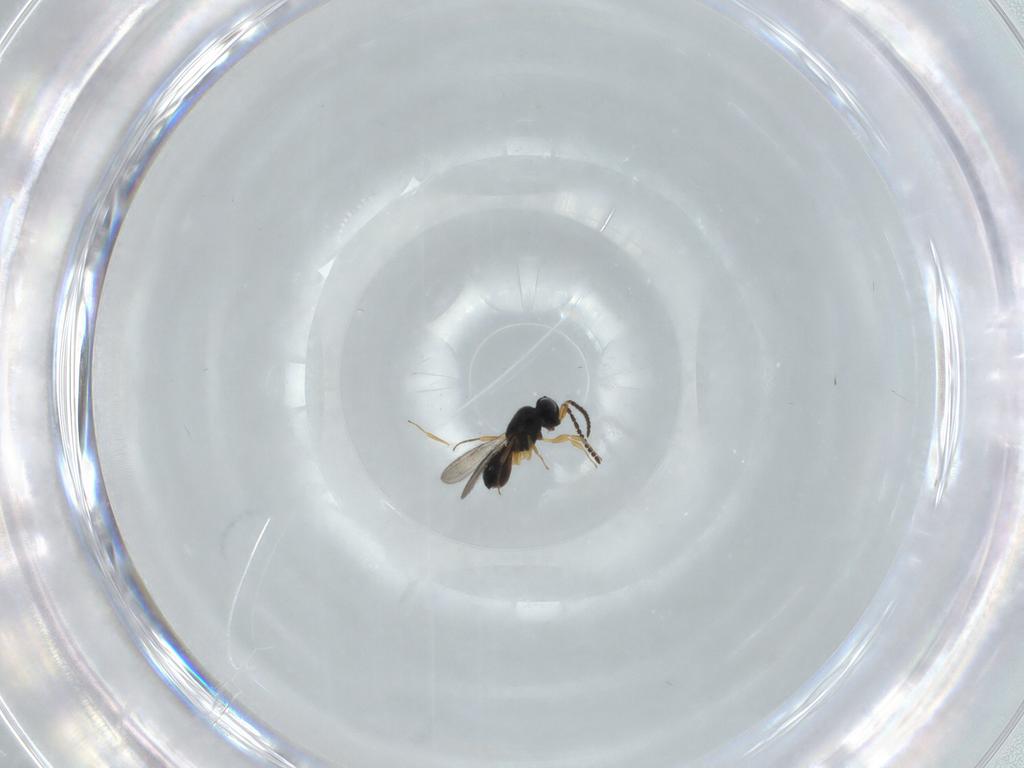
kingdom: Animalia
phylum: Arthropoda
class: Insecta
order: Hymenoptera
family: Scelionidae
